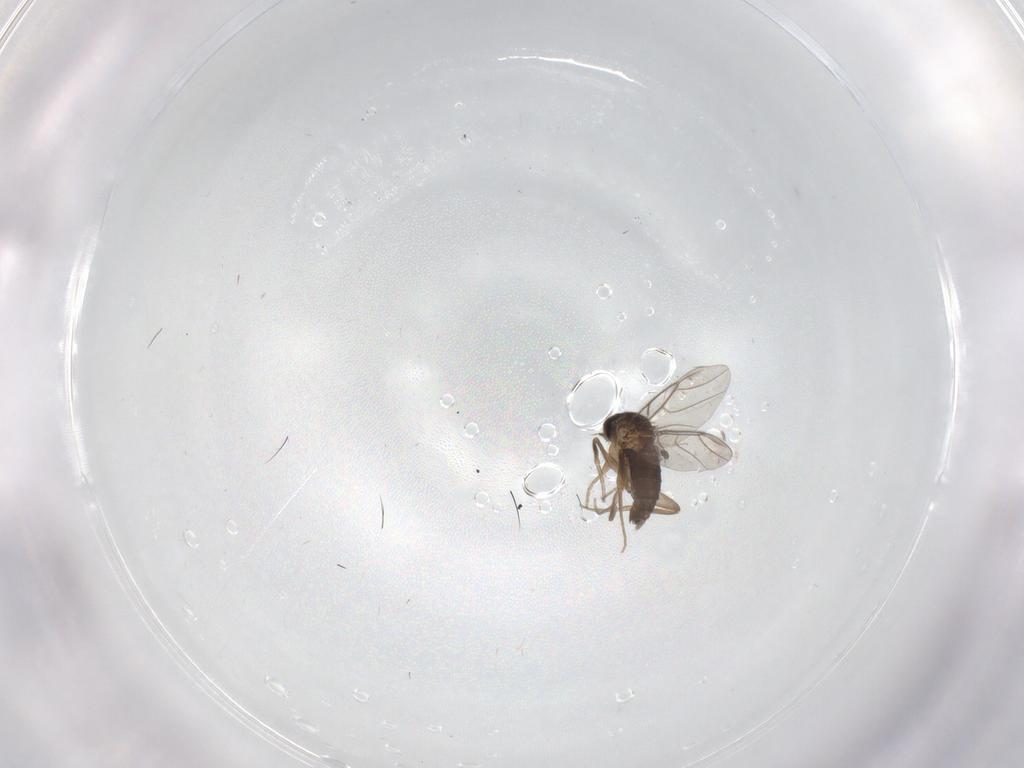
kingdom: Animalia
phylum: Arthropoda
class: Insecta
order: Diptera
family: Phoridae
